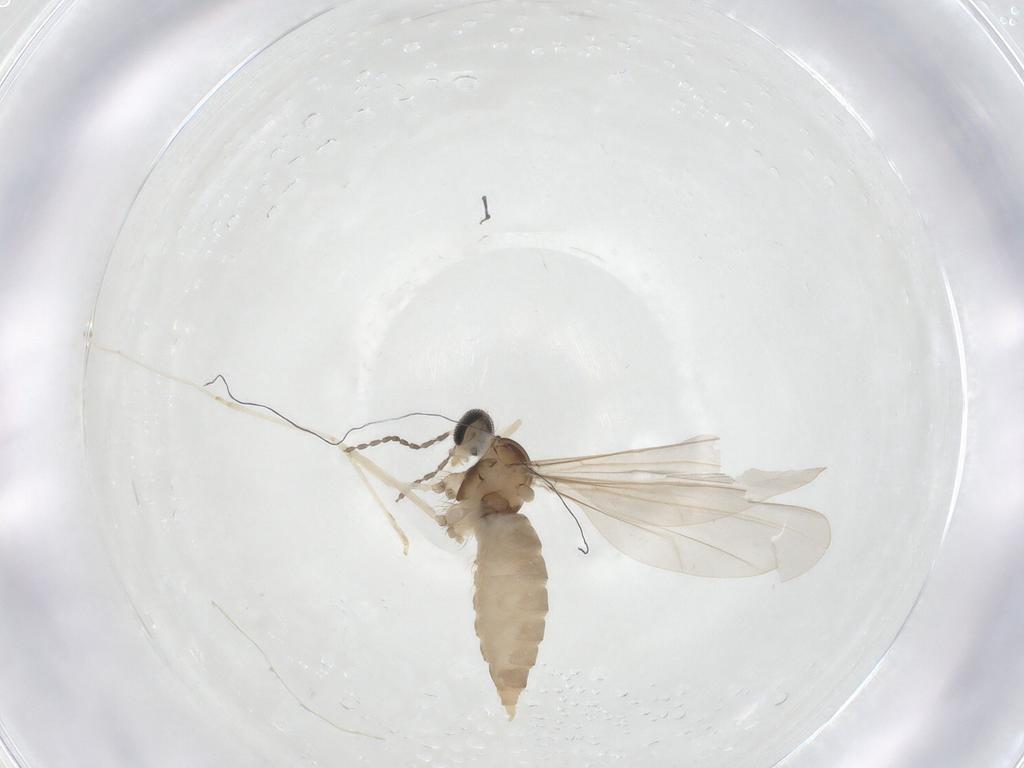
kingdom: Animalia
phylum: Arthropoda
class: Insecta
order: Diptera
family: Cecidomyiidae
